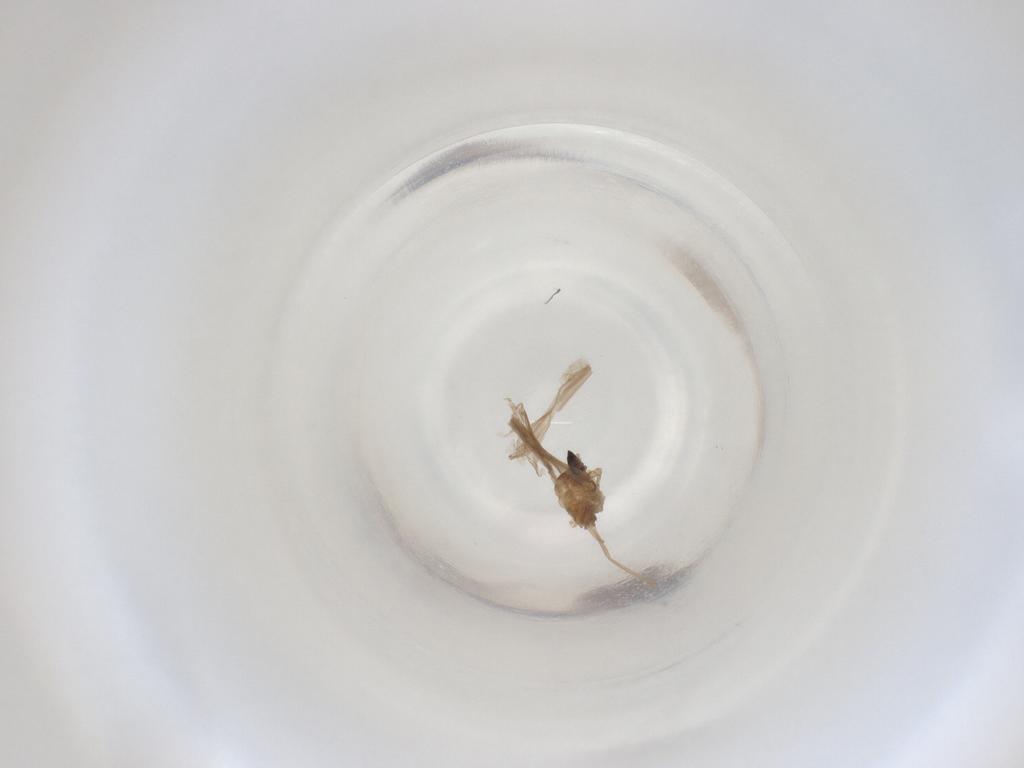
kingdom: Animalia
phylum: Arthropoda
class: Insecta
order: Diptera
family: Cecidomyiidae
